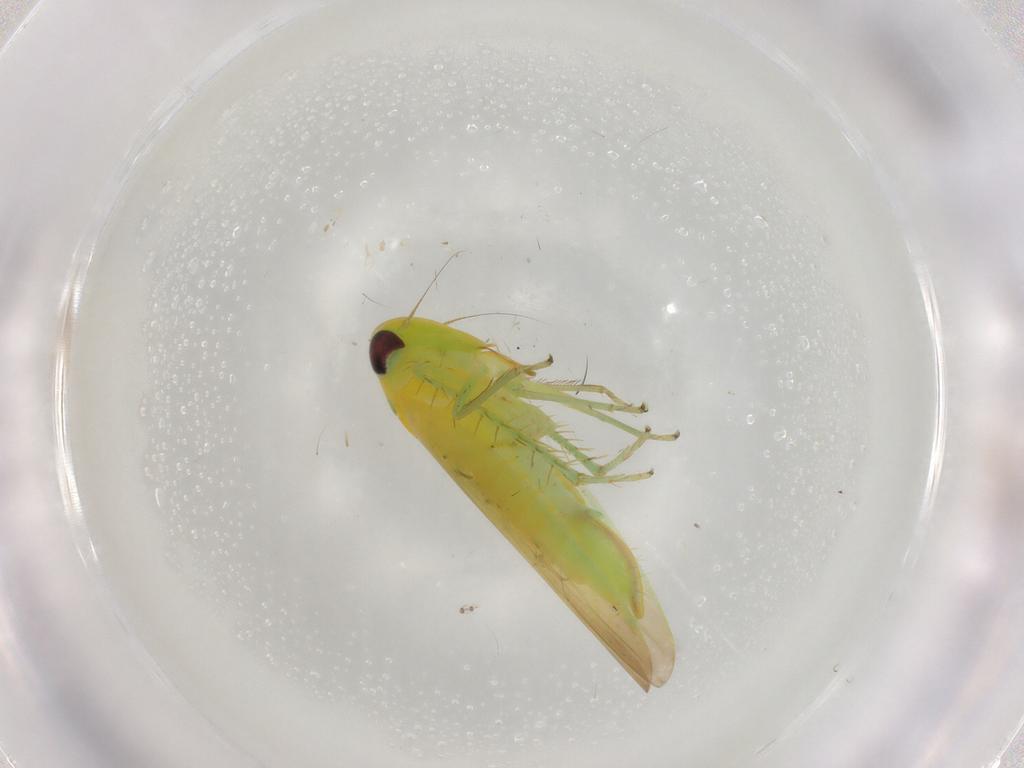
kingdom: Animalia
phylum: Arthropoda
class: Insecta
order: Hemiptera
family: Cicadellidae
